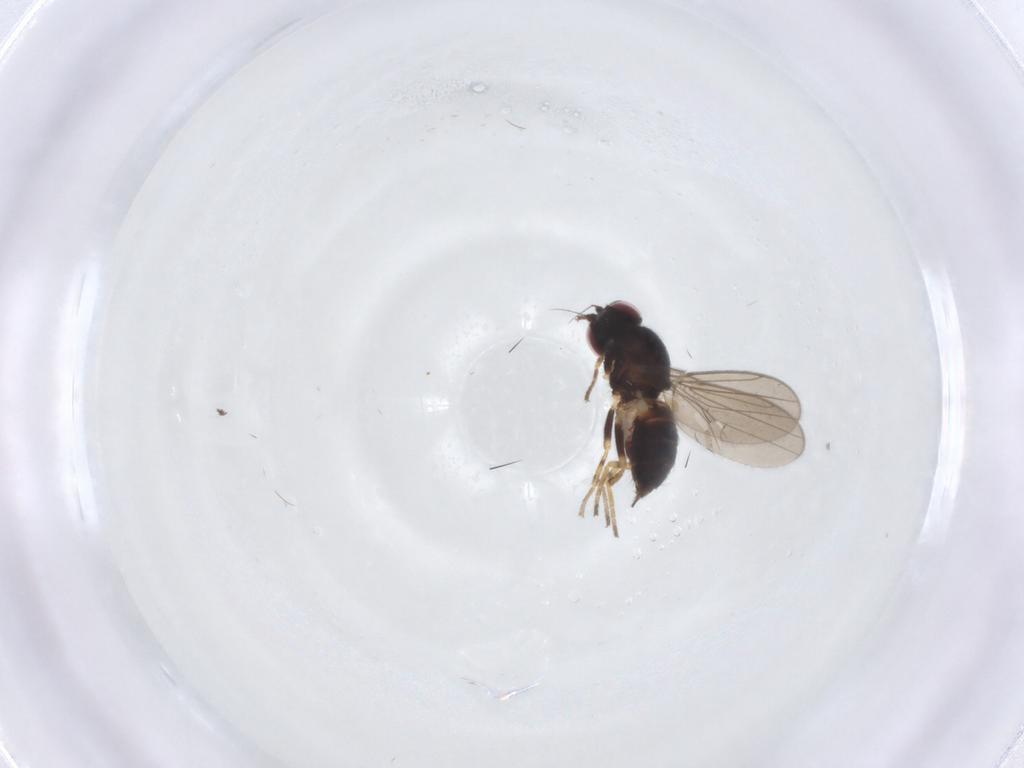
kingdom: Animalia
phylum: Arthropoda
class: Insecta
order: Diptera
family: Chloropidae
